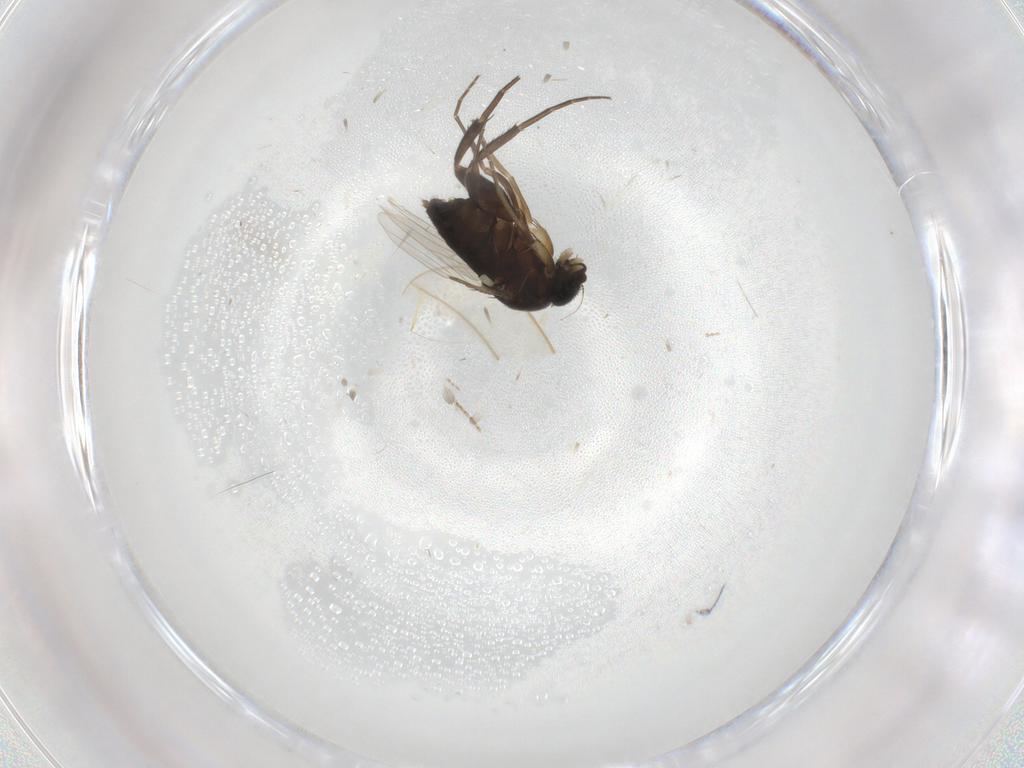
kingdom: Animalia
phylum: Arthropoda
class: Insecta
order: Diptera
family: Phoridae
